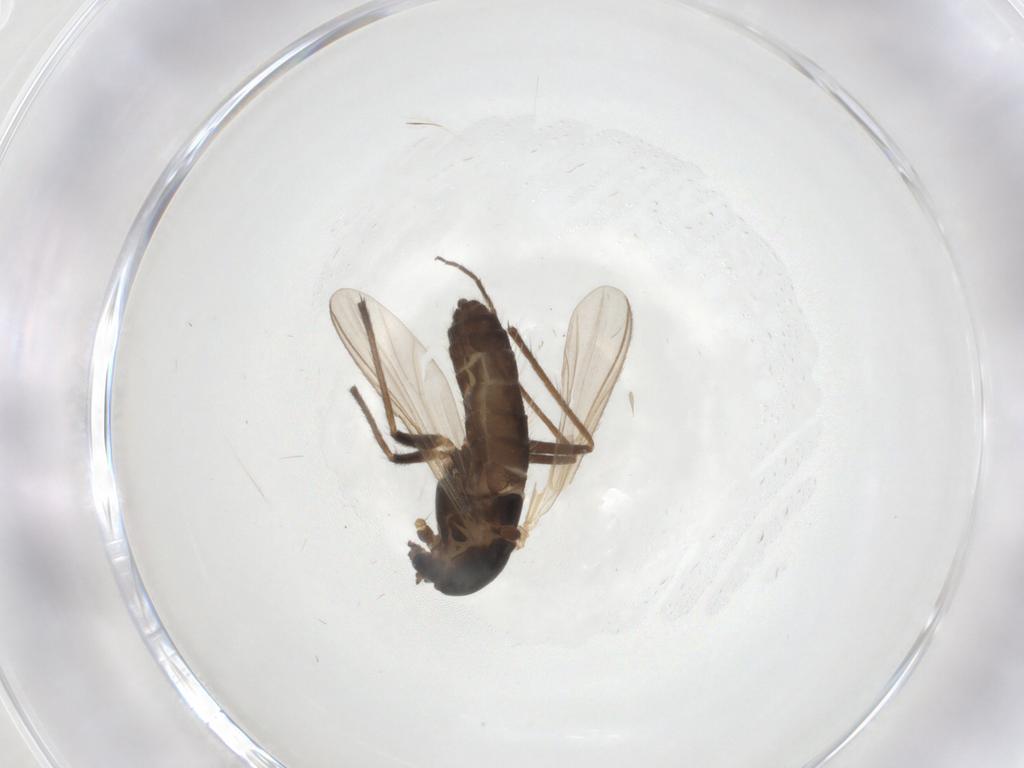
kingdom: Animalia
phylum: Arthropoda
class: Insecta
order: Diptera
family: Chironomidae
